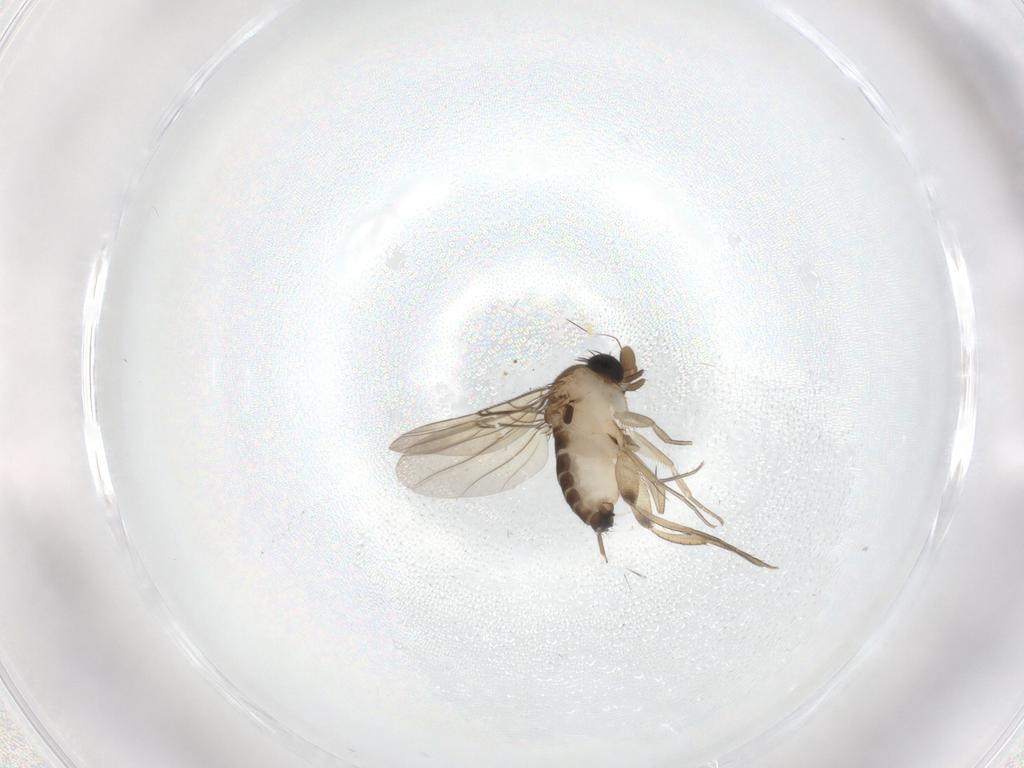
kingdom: Animalia
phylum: Arthropoda
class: Insecta
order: Diptera
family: Phoridae
